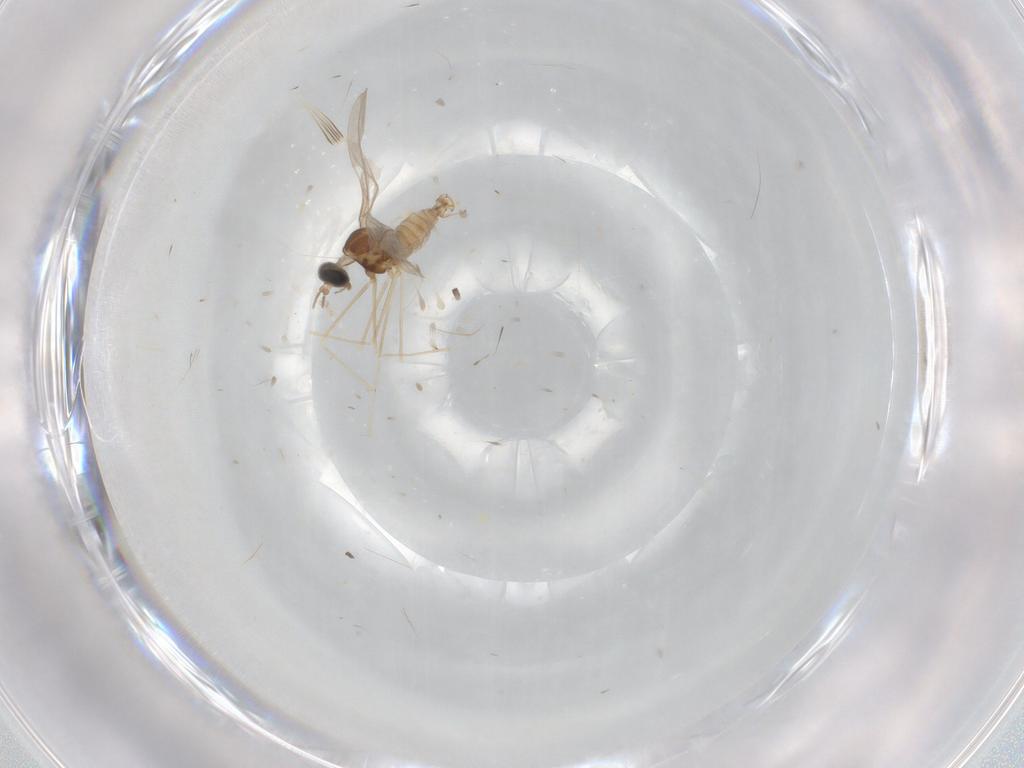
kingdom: Animalia
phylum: Arthropoda
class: Insecta
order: Diptera
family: Cecidomyiidae
